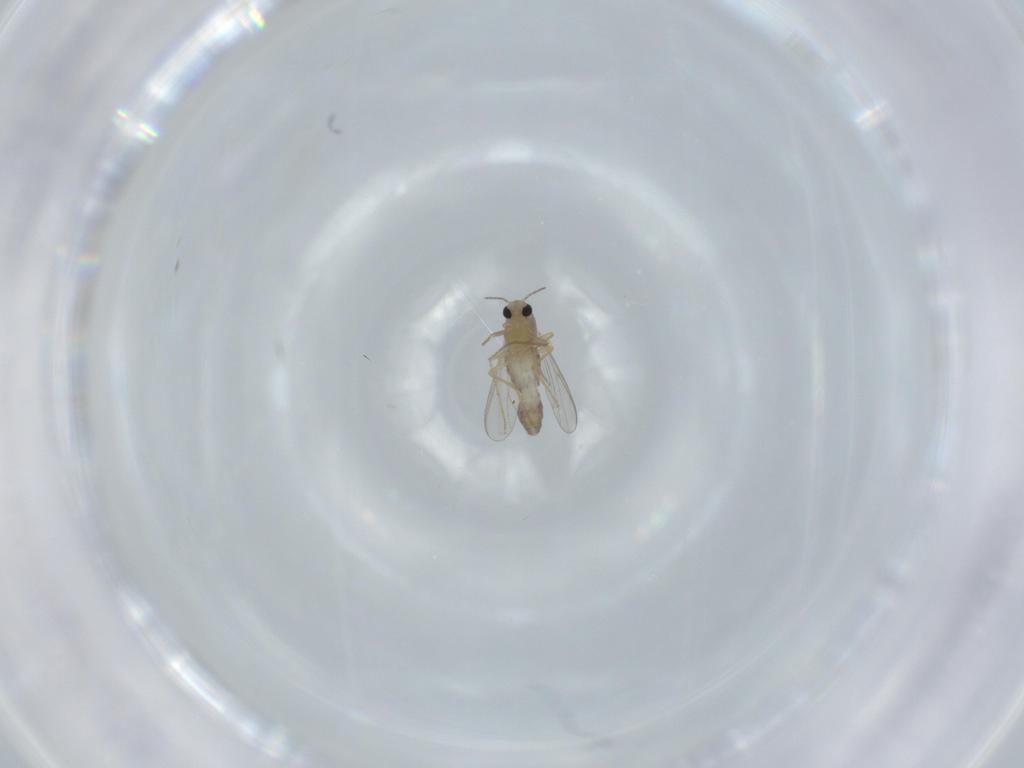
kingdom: Animalia
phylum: Arthropoda
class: Insecta
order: Diptera
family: Chironomidae
